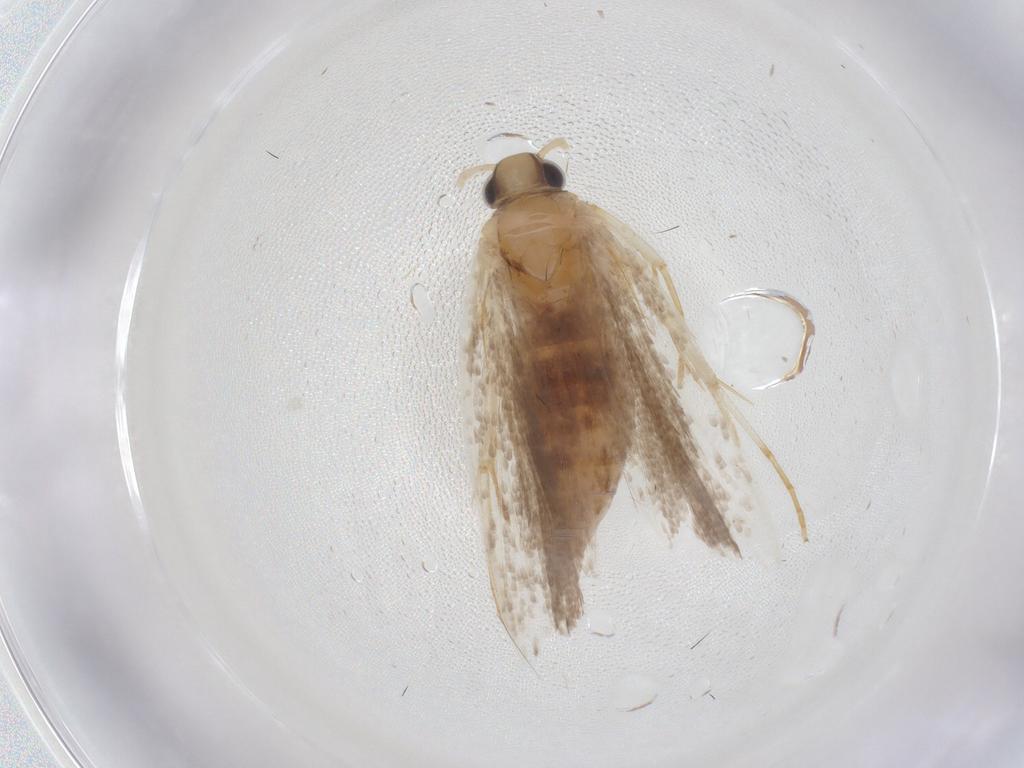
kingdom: Animalia
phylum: Arthropoda
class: Insecta
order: Lepidoptera
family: Gelechiidae
